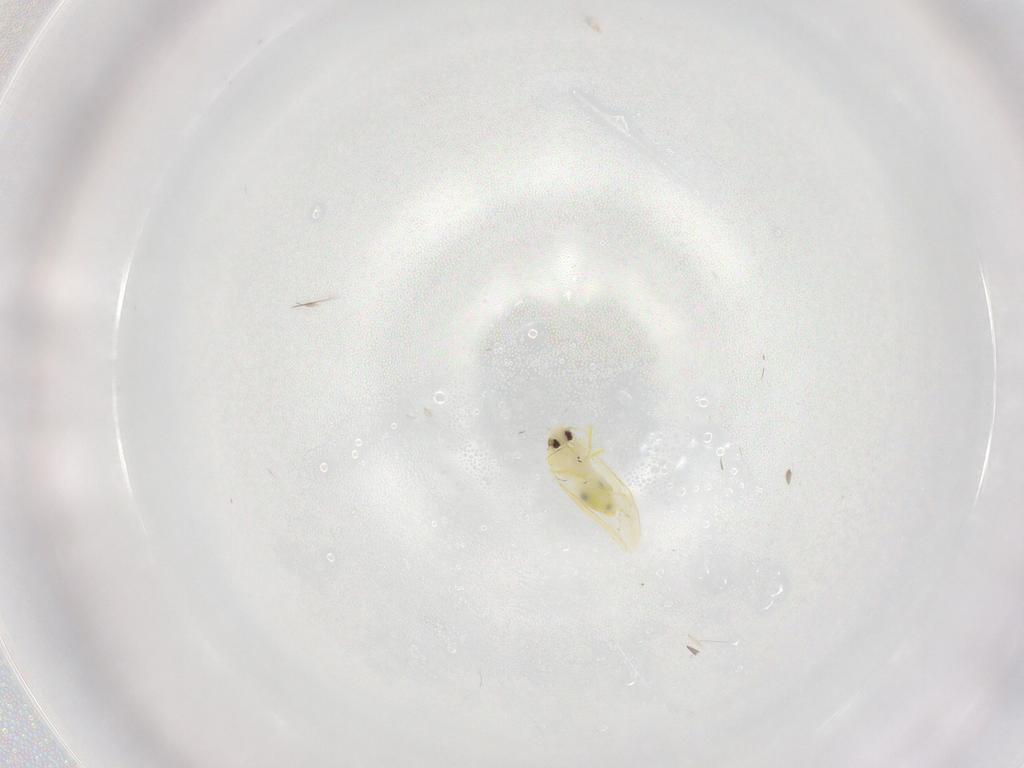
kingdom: Animalia
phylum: Arthropoda
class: Insecta
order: Hemiptera
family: Aleyrodidae
